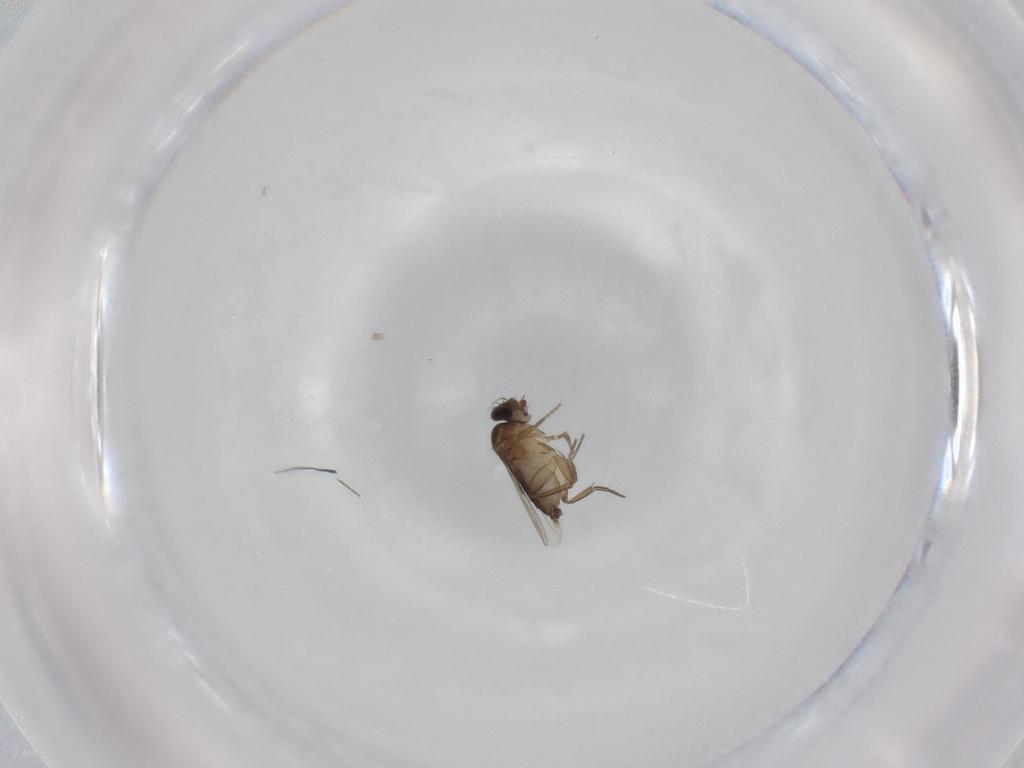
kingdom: Animalia
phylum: Arthropoda
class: Insecta
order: Diptera
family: Phoridae
